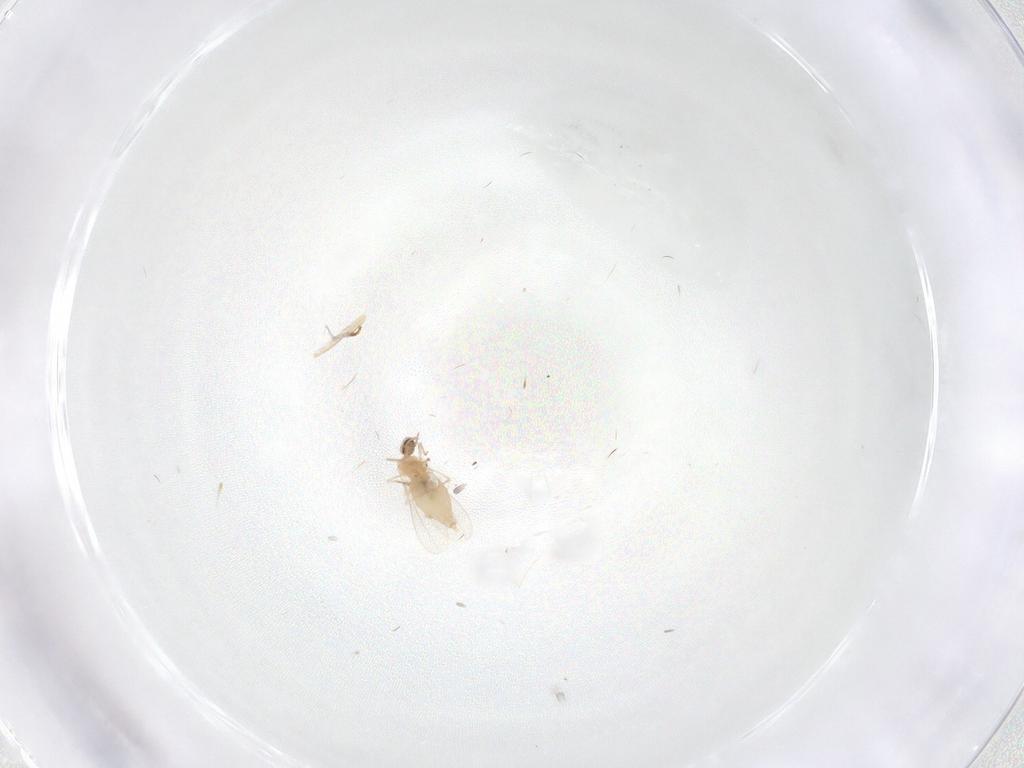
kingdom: Animalia
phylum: Arthropoda
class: Insecta
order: Diptera
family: Cecidomyiidae
